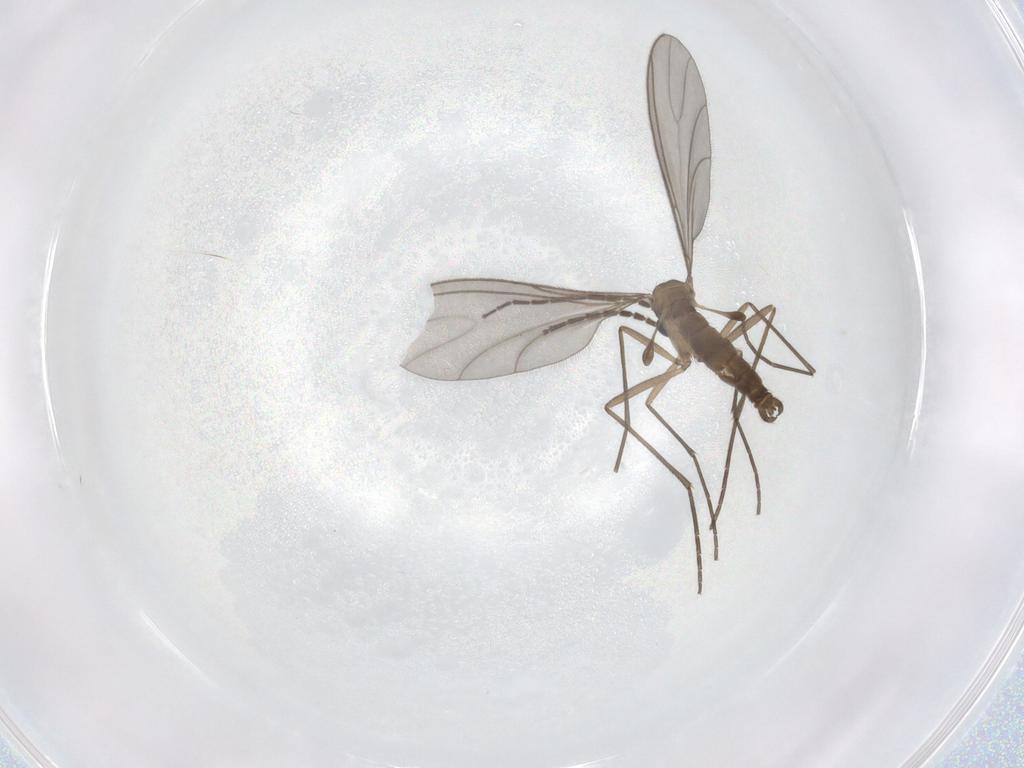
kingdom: Animalia
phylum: Arthropoda
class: Insecta
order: Diptera
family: Sciaridae
